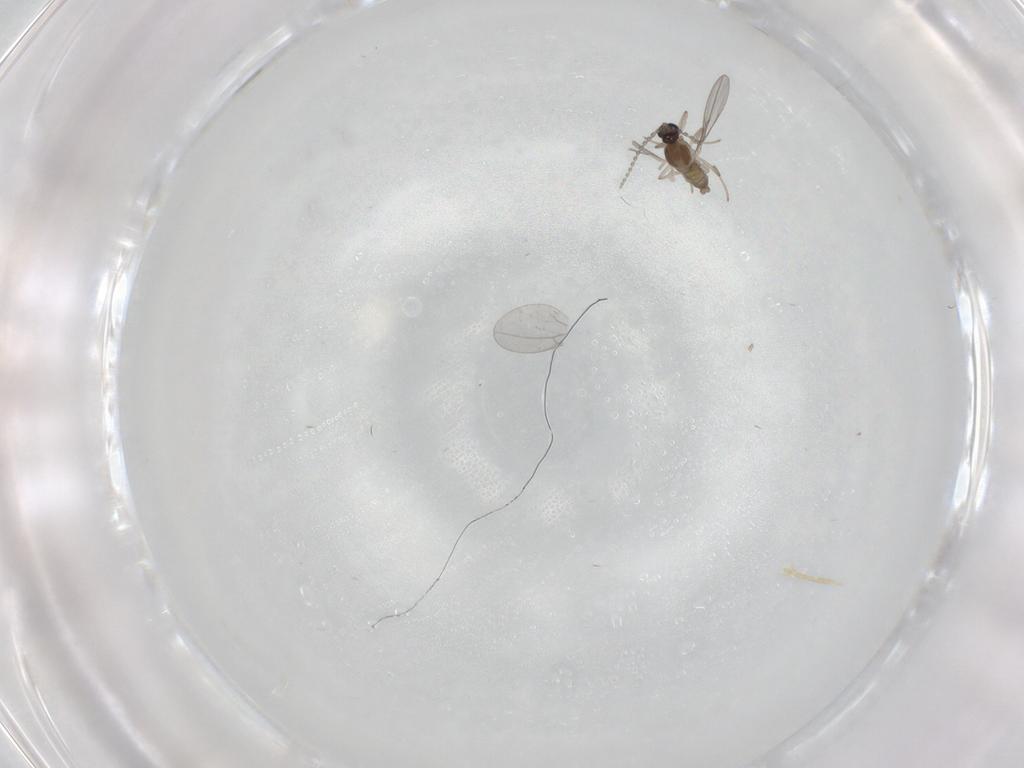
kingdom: Animalia
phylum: Arthropoda
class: Insecta
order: Diptera
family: Cecidomyiidae
